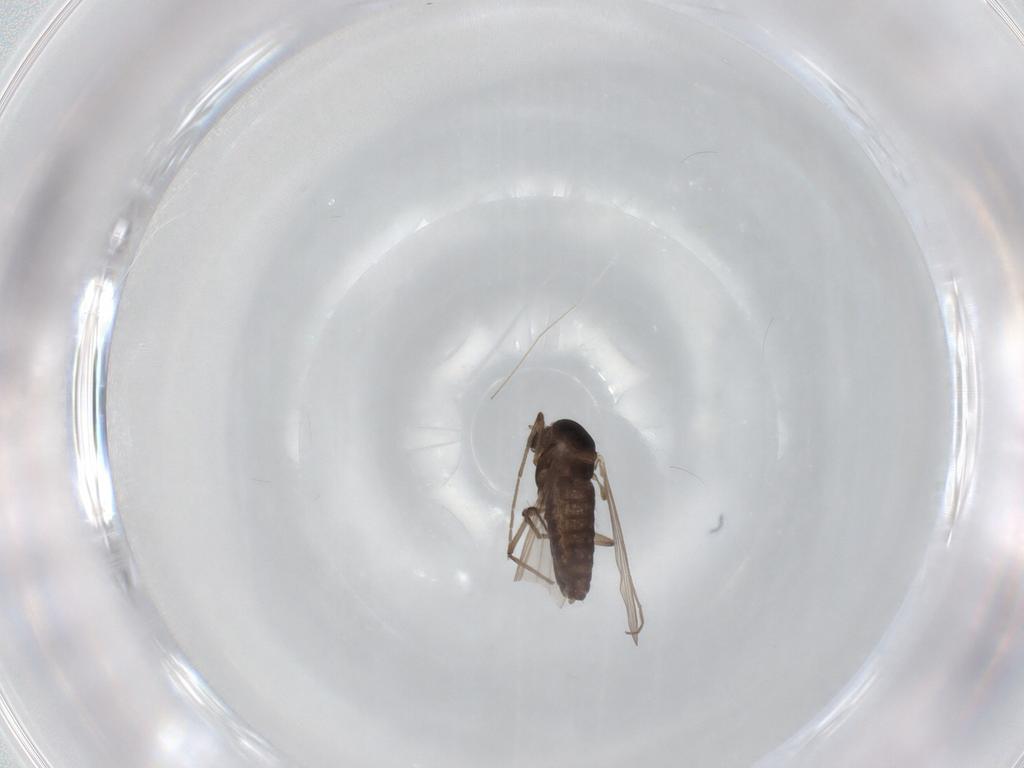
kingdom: Animalia
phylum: Arthropoda
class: Insecta
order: Diptera
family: Chironomidae
